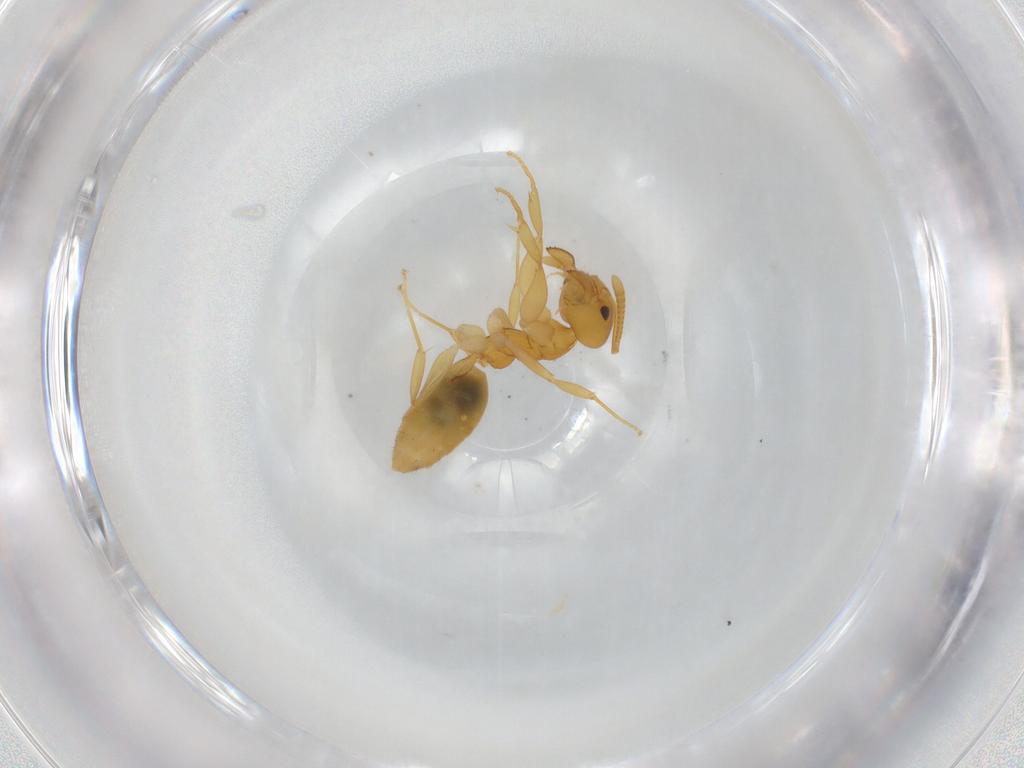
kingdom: Animalia
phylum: Arthropoda
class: Insecta
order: Hymenoptera
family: Formicidae
